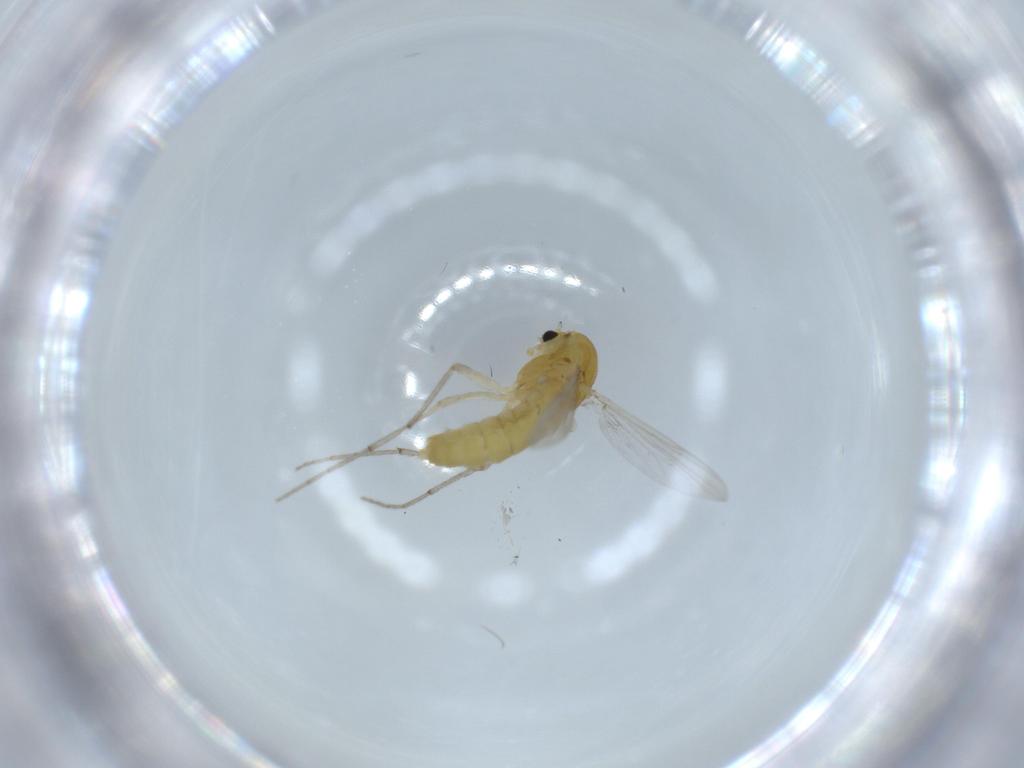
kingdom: Animalia
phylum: Arthropoda
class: Insecta
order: Diptera
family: Chironomidae
